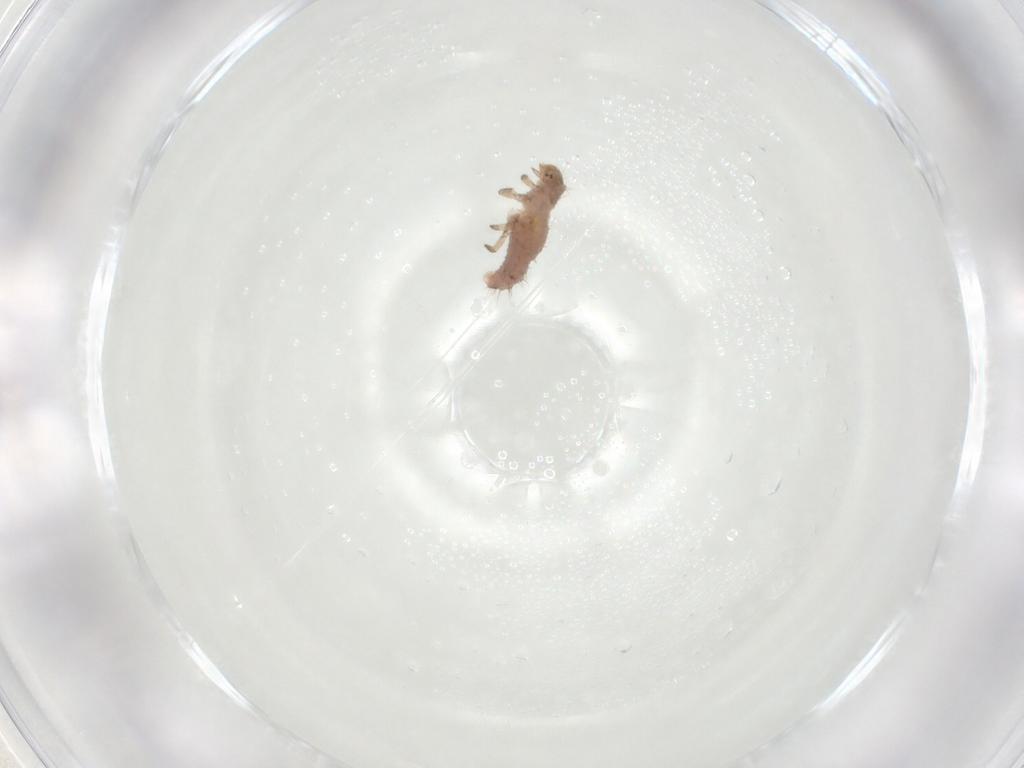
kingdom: Animalia
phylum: Arthropoda
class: Insecta
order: Coleoptera
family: Coccinellidae
